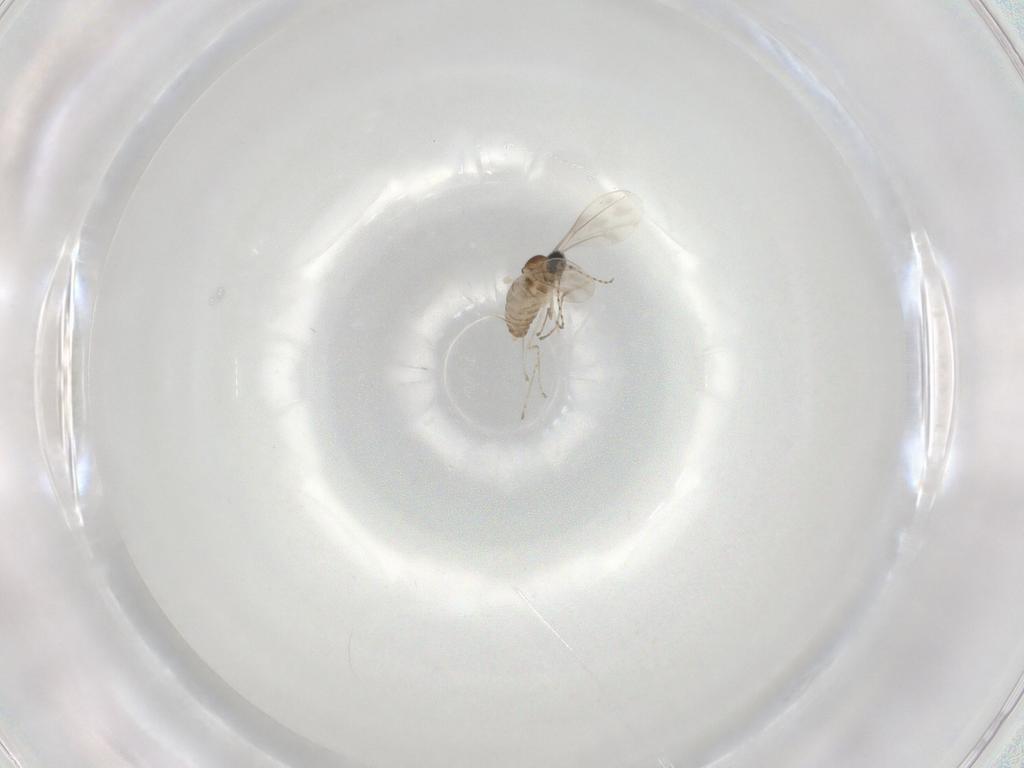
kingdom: Animalia
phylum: Arthropoda
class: Insecta
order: Diptera
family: Cecidomyiidae
